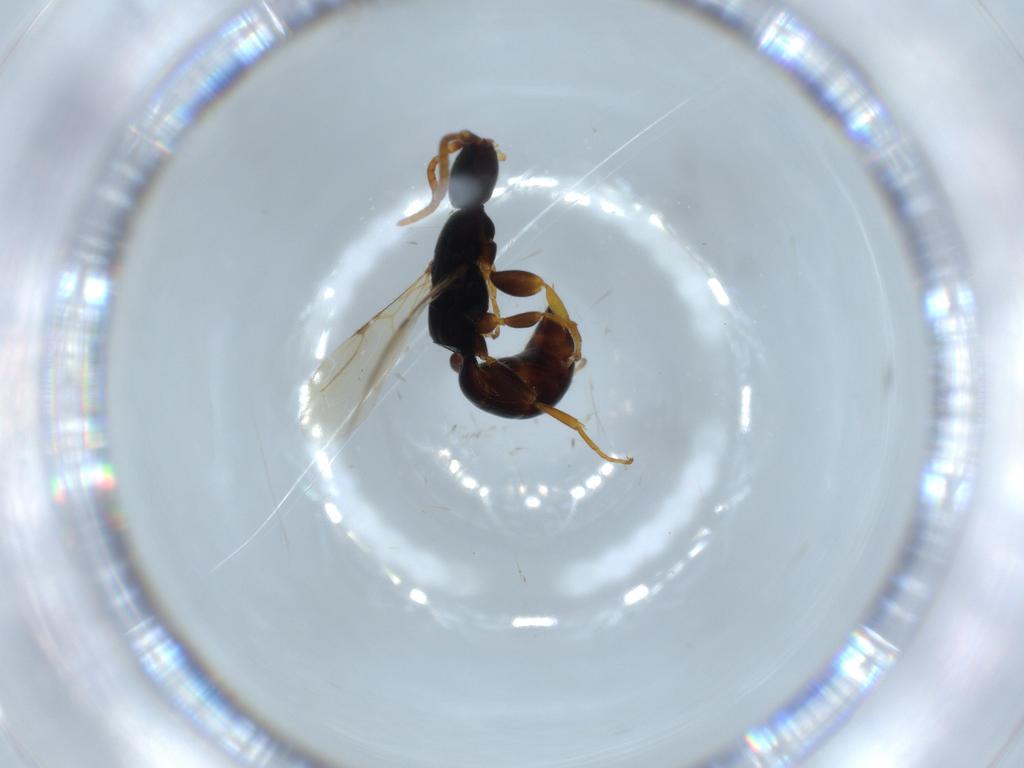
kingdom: Animalia
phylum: Arthropoda
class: Insecta
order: Hymenoptera
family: Bethylidae
